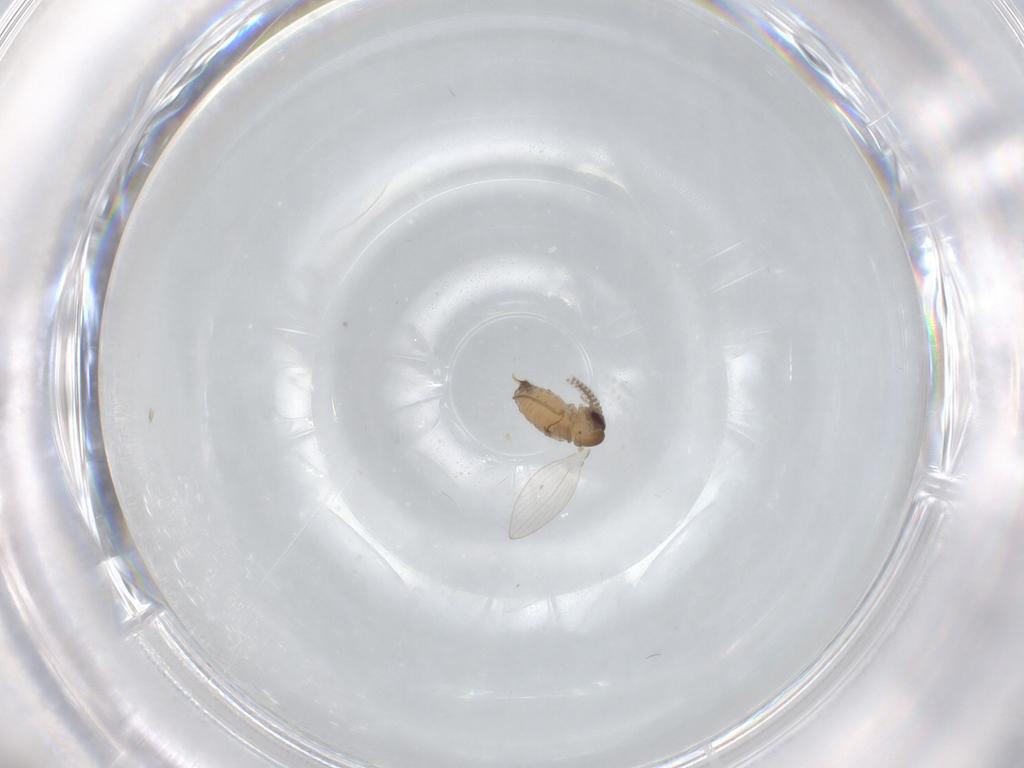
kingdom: Animalia
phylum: Arthropoda
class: Insecta
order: Diptera
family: Psychodidae
